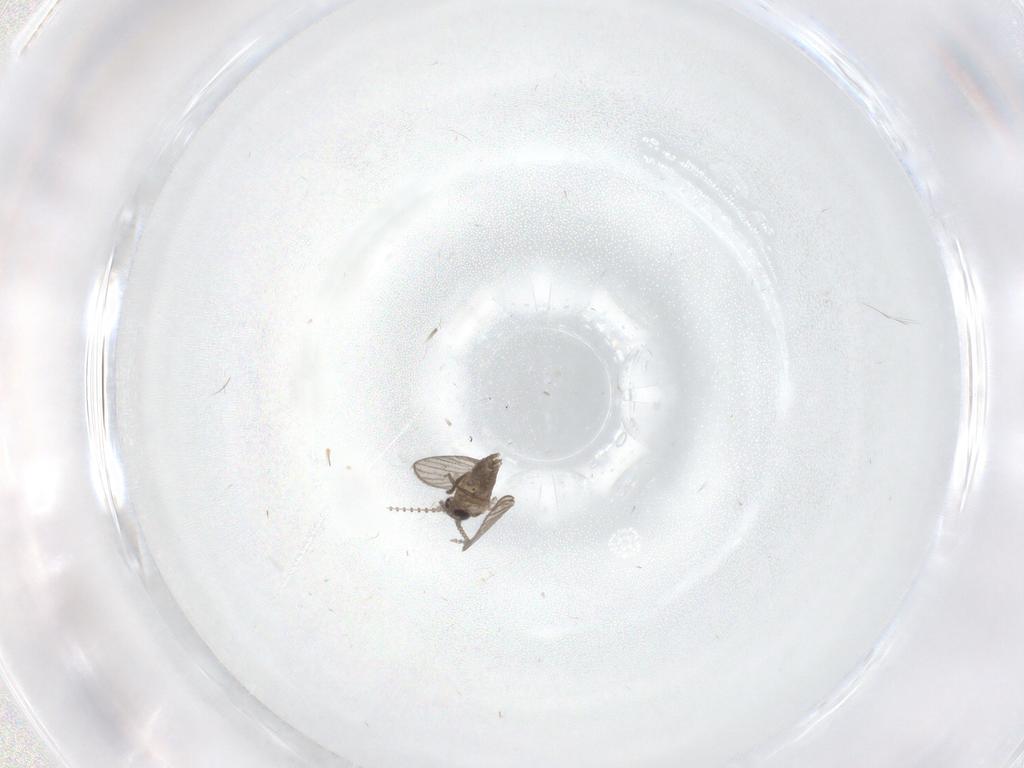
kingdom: Animalia
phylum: Arthropoda
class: Insecta
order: Diptera
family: Psychodidae
